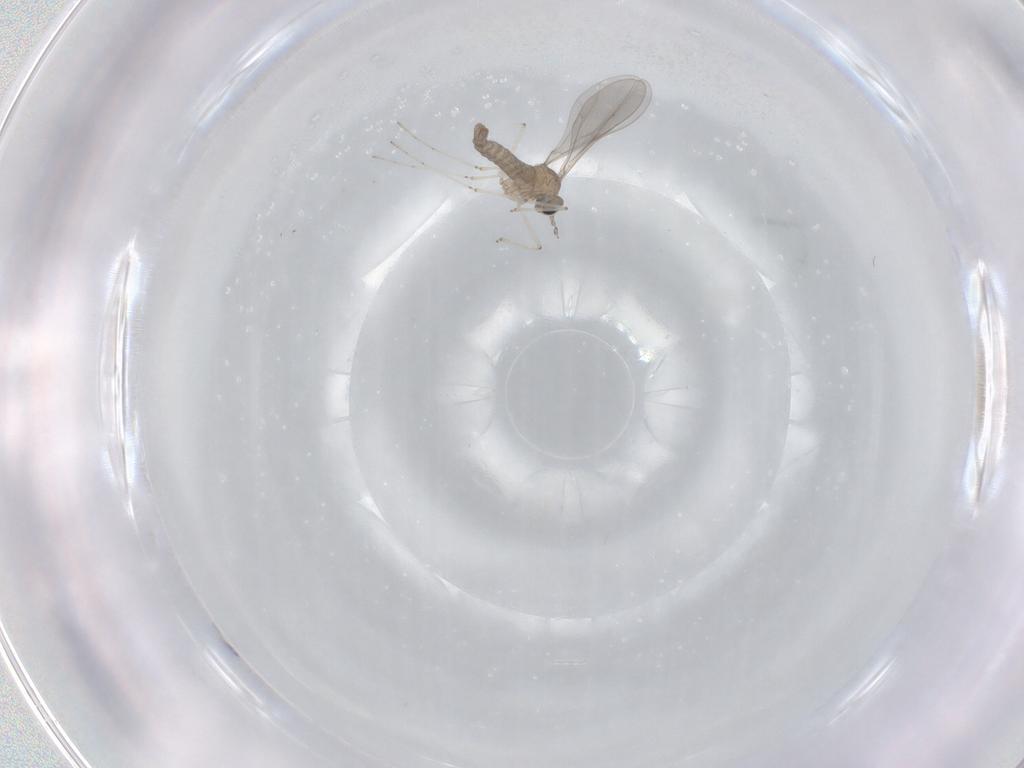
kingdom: Animalia
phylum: Arthropoda
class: Insecta
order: Diptera
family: Cecidomyiidae
